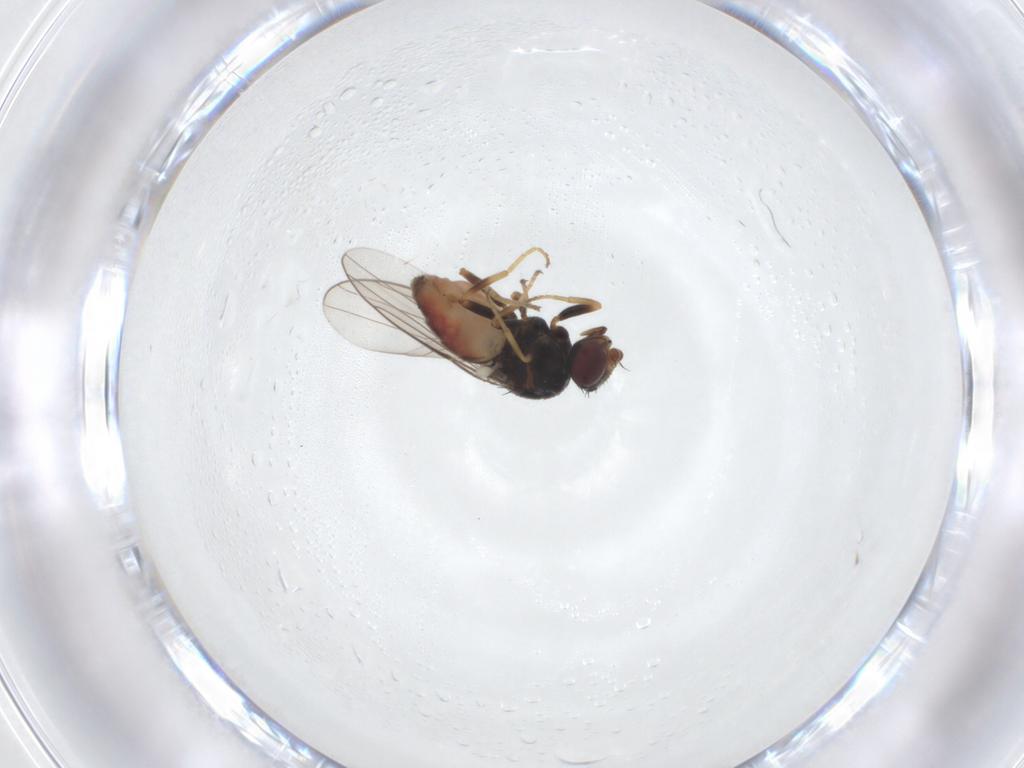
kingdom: Animalia
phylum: Arthropoda
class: Insecta
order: Diptera
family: Chloropidae
